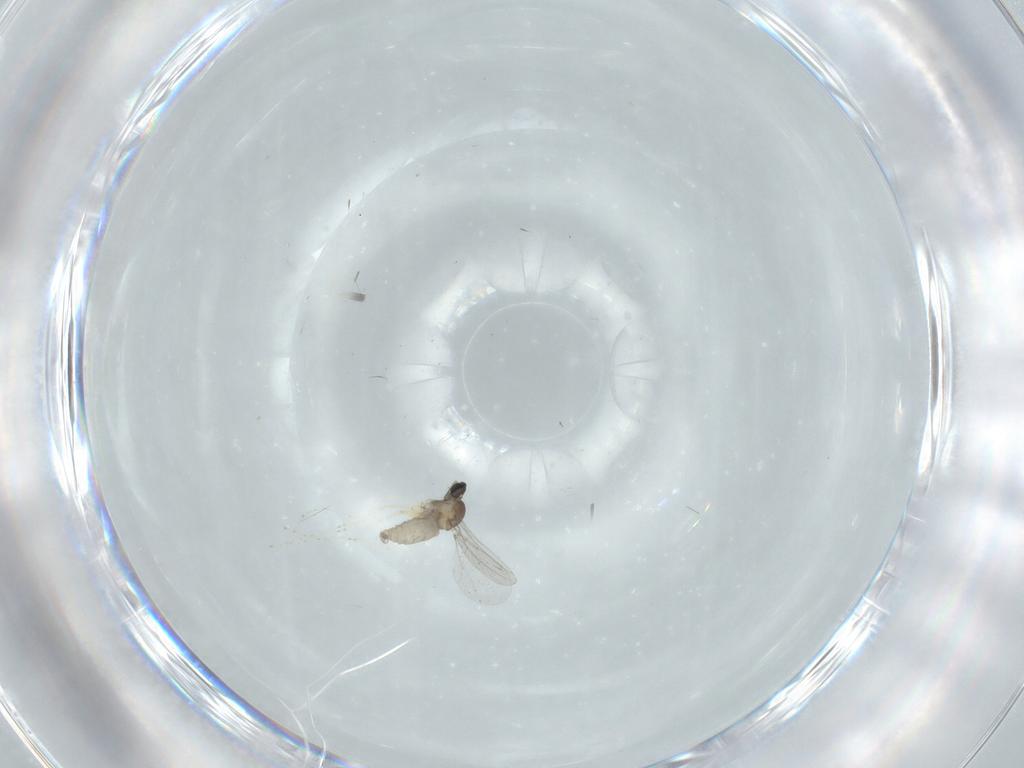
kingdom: Animalia
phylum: Arthropoda
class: Insecta
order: Diptera
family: Cecidomyiidae
